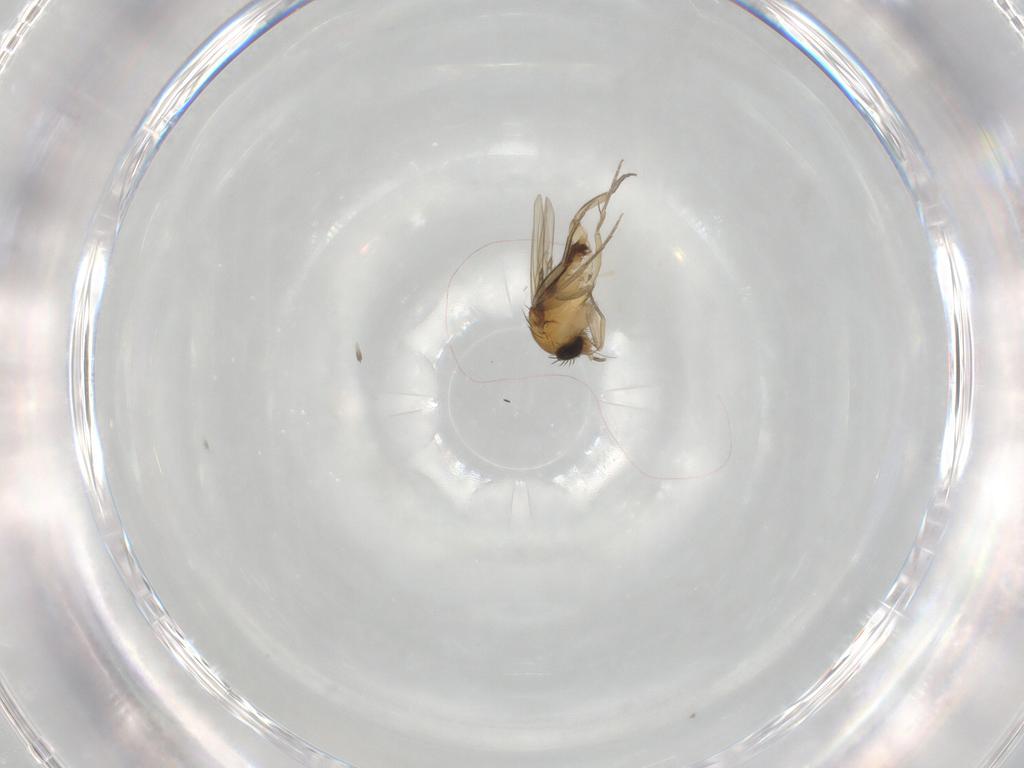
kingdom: Animalia
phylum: Arthropoda
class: Insecta
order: Diptera
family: Phoridae
